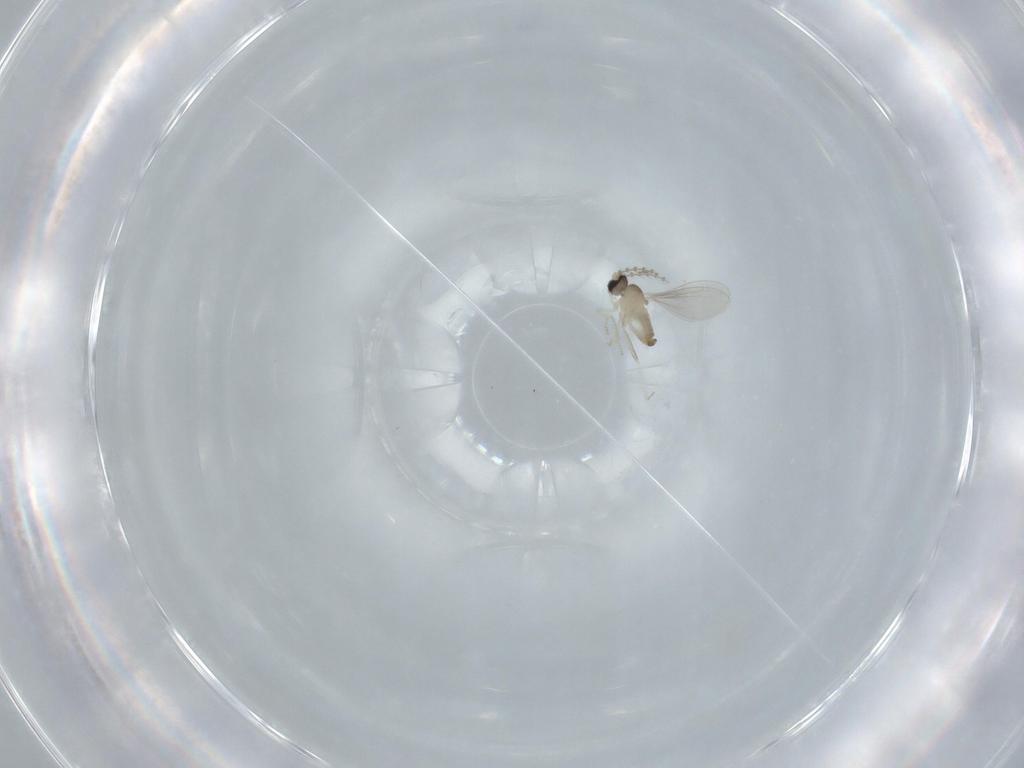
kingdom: Animalia
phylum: Arthropoda
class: Insecta
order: Diptera
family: Cecidomyiidae
